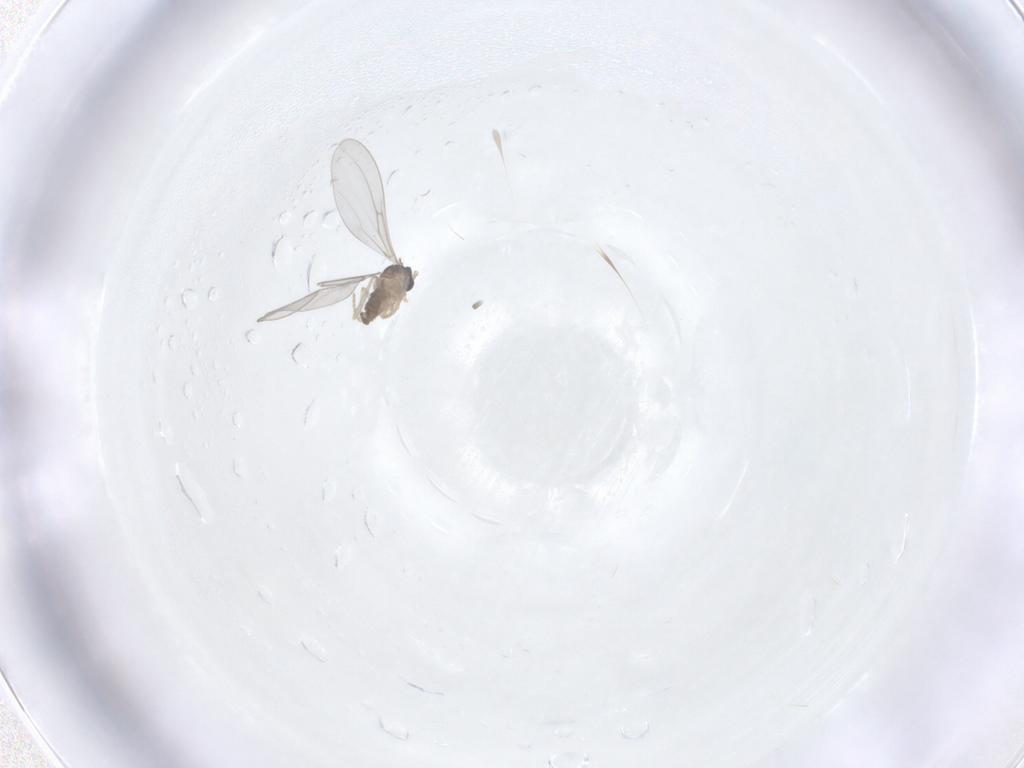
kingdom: Animalia
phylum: Arthropoda
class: Insecta
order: Diptera
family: Cecidomyiidae
